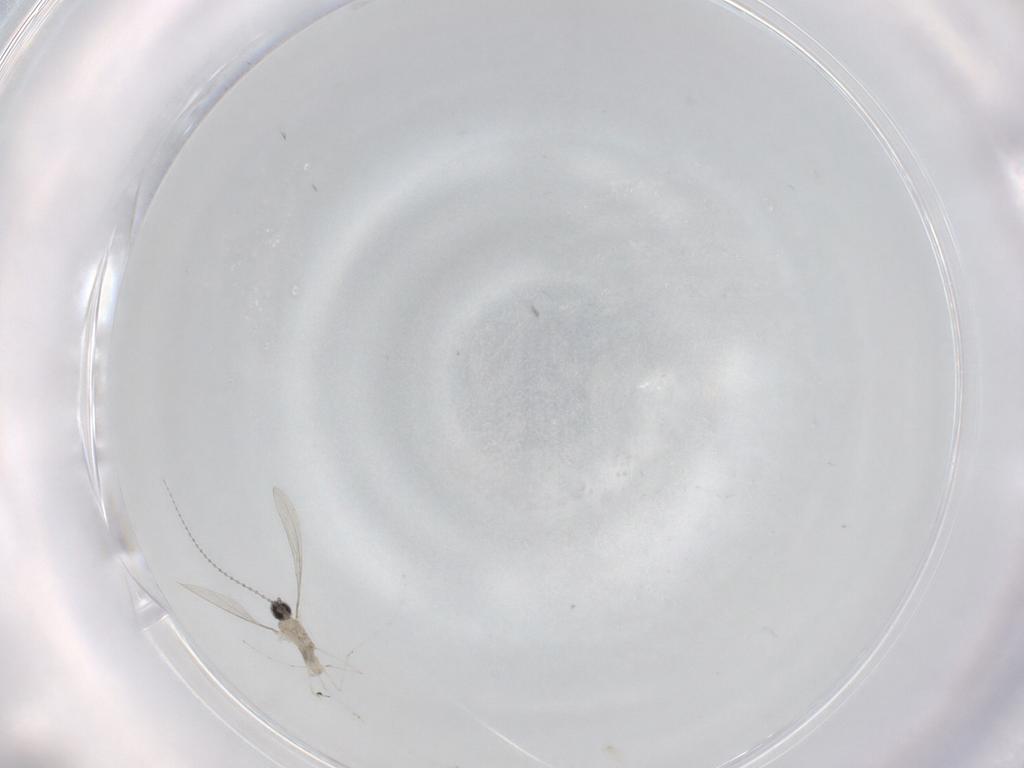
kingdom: Animalia
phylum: Arthropoda
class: Insecta
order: Diptera
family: Cecidomyiidae
